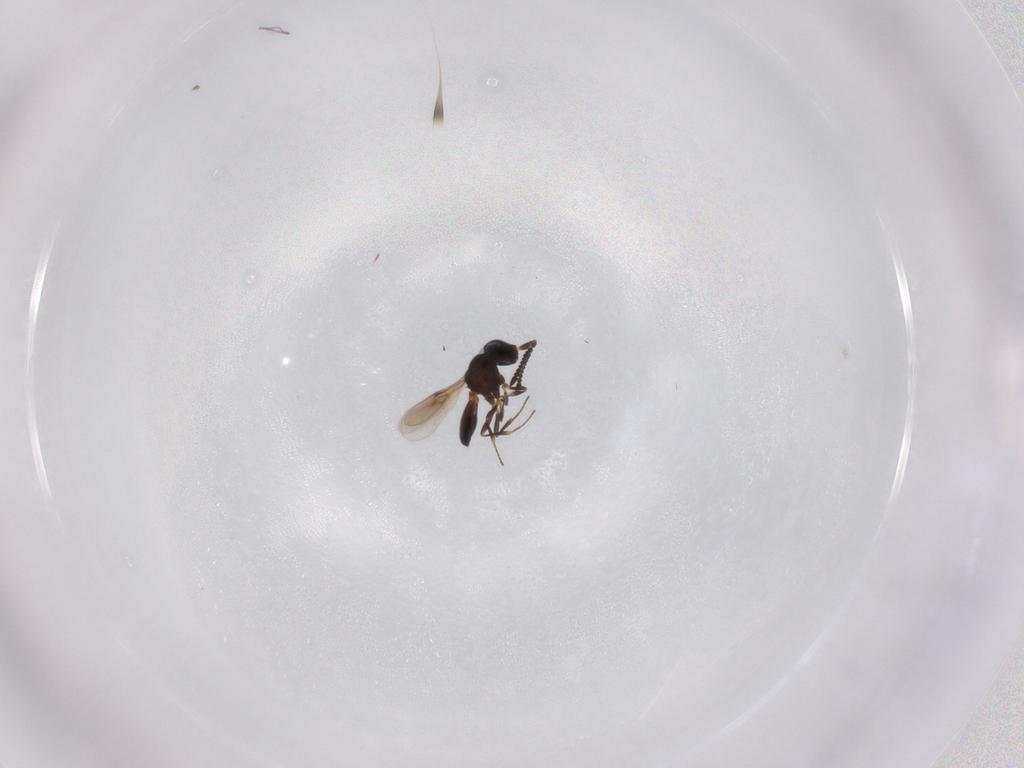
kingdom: Animalia
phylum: Arthropoda
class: Insecta
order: Hymenoptera
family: Scelionidae
